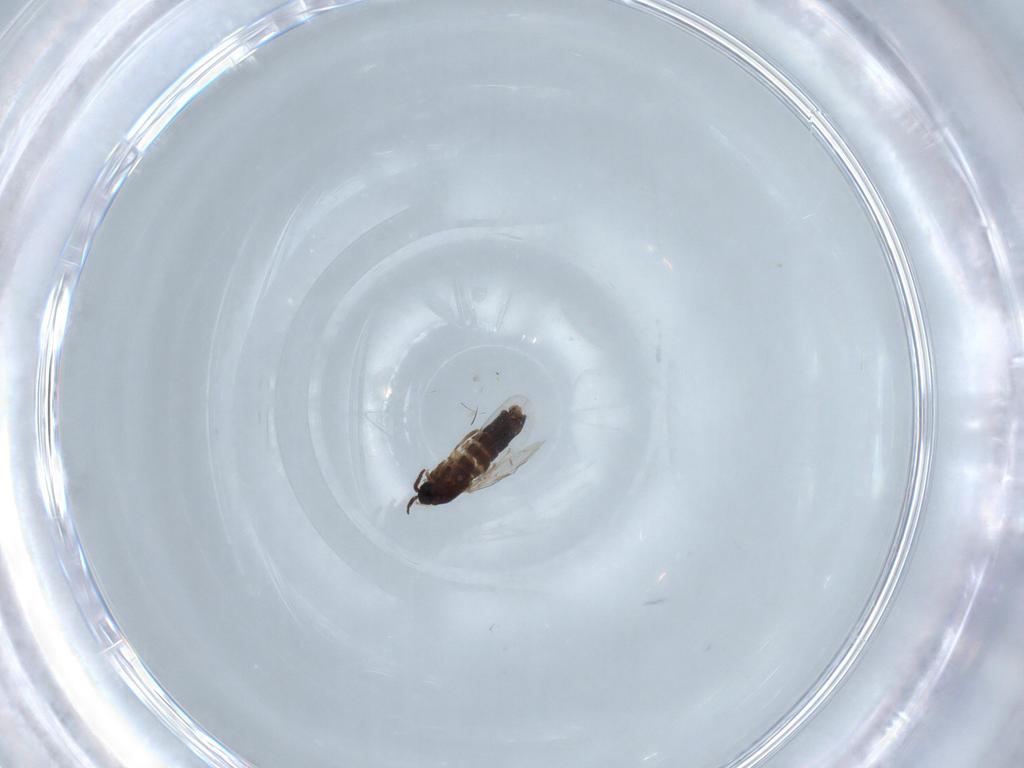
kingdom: Animalia
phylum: Arthropoda
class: Insecta
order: Diptera
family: Scatopsidae
